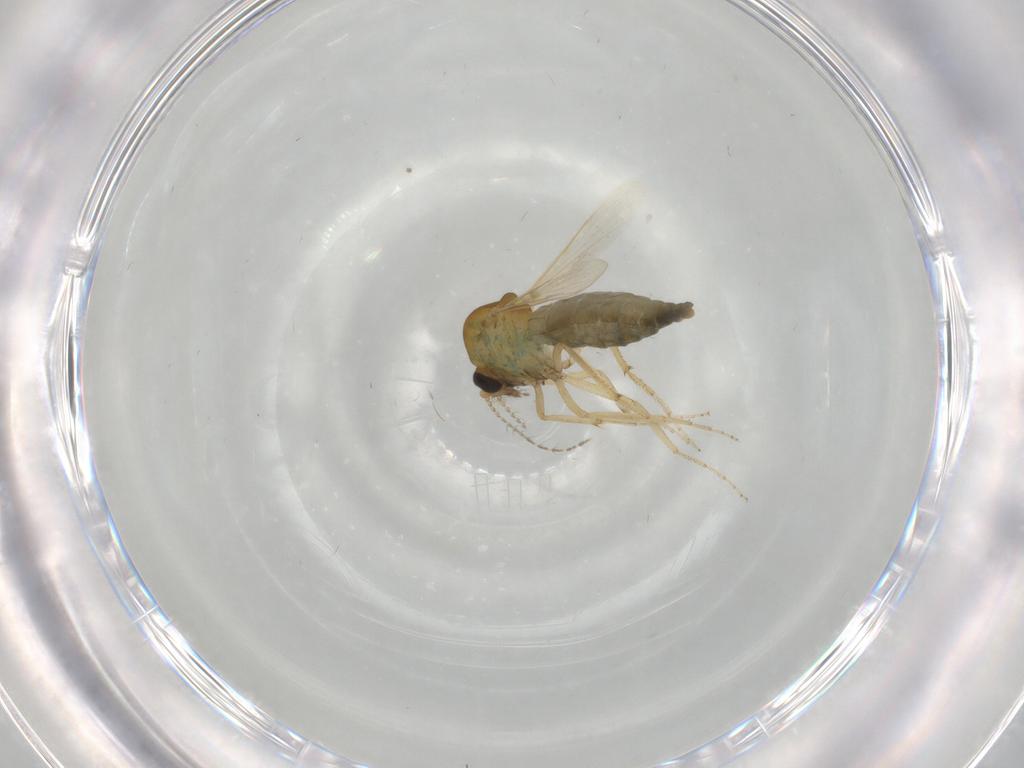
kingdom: Animalia
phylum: Arthropoda
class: Insecta
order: Diptera
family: Ceratopogonidae
